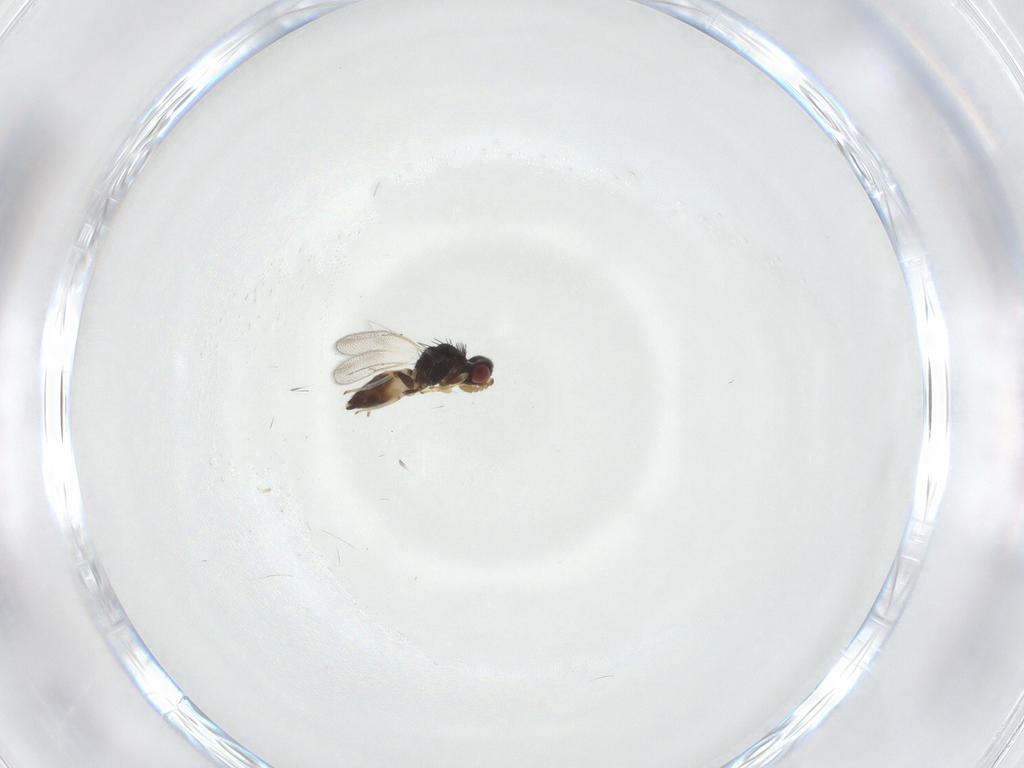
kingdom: Animalia
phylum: Arthropoda
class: Insecta
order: Hymenoptera
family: Eulophidae
